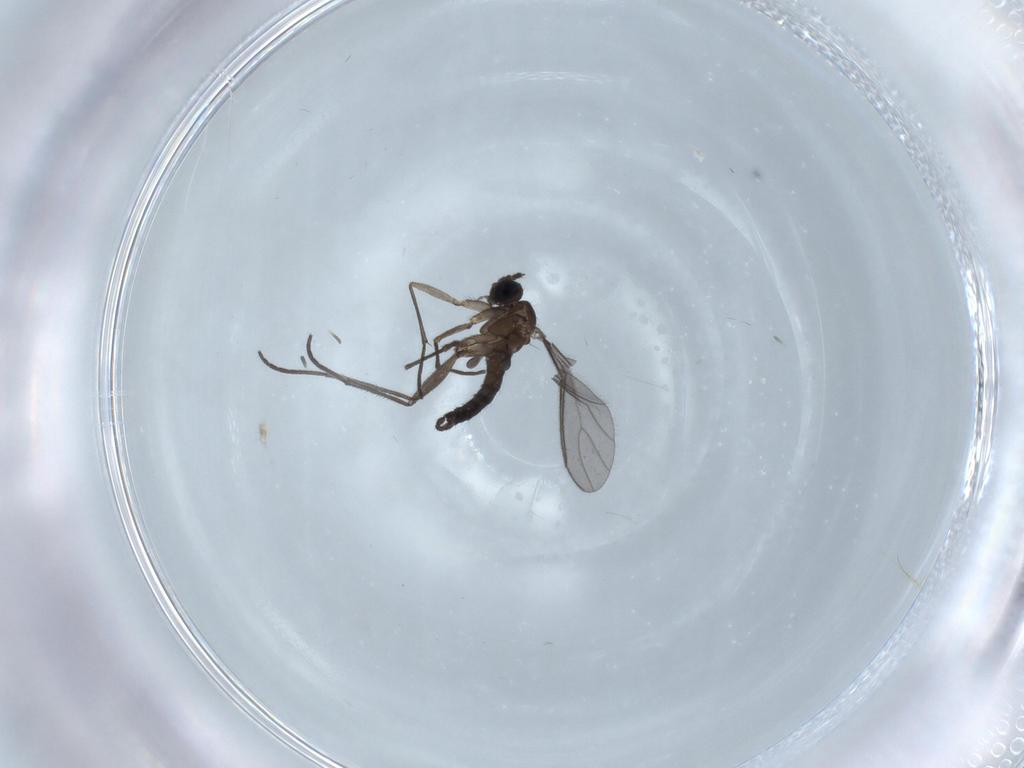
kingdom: Animalia
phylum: Arthropoda
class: Insecta
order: Diptera
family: Sciaridae
